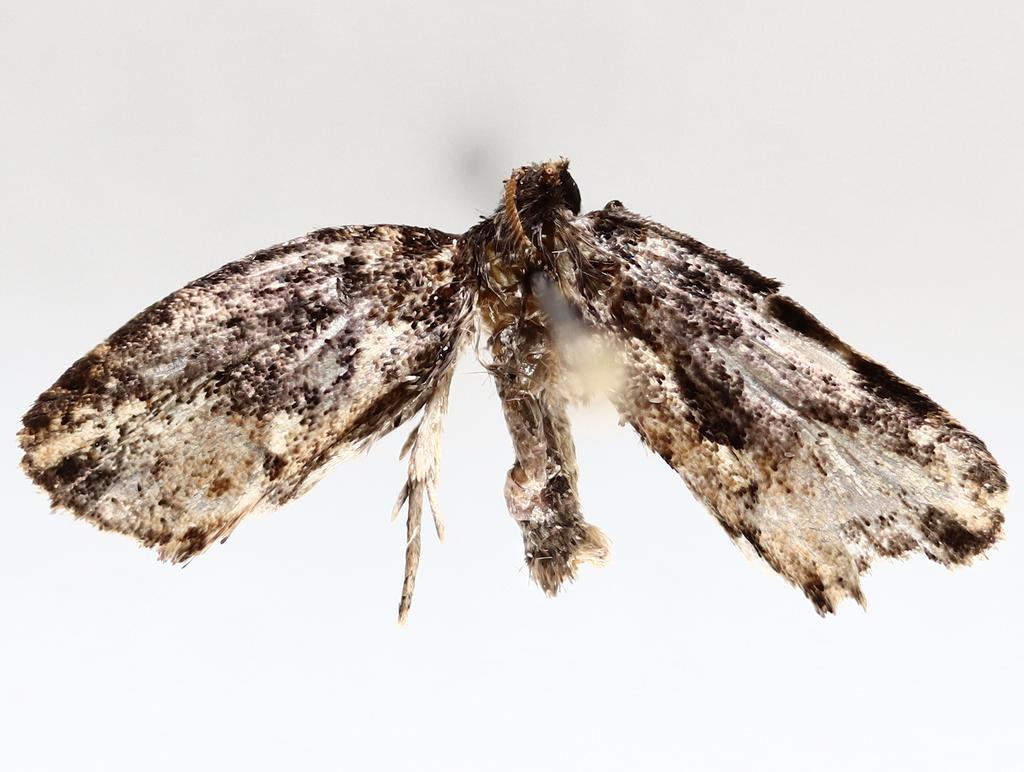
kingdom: Animalia
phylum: Arthropoda
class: Insecta
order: Diptera
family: Cecidomyiidae
